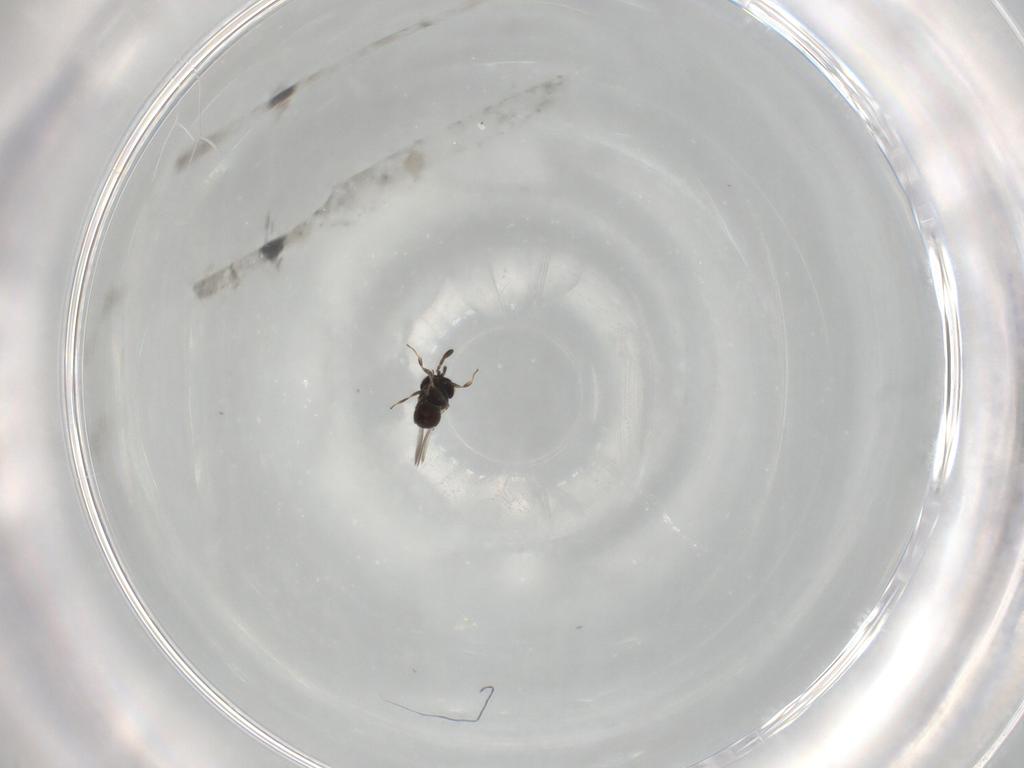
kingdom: Animalia
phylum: Arthropoda
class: Insecta
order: Hymenoptera
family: Scelionidae
